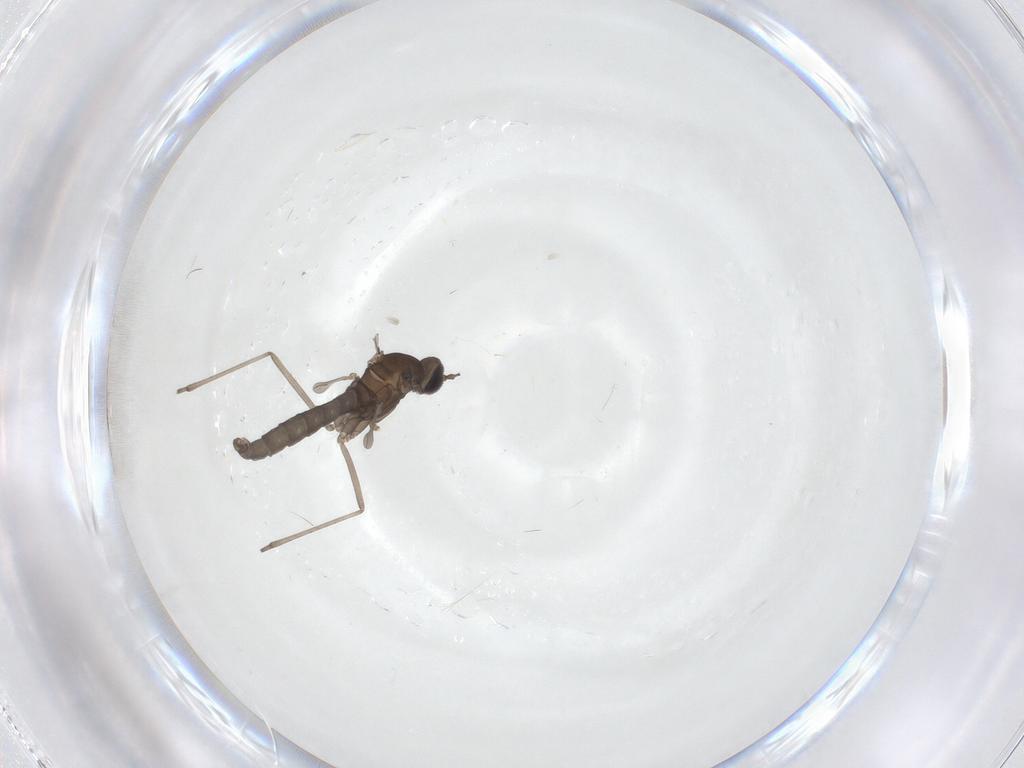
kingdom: Animalia
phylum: Arthropoda
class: Insecta
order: Diptera
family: Cecidomyiidae
